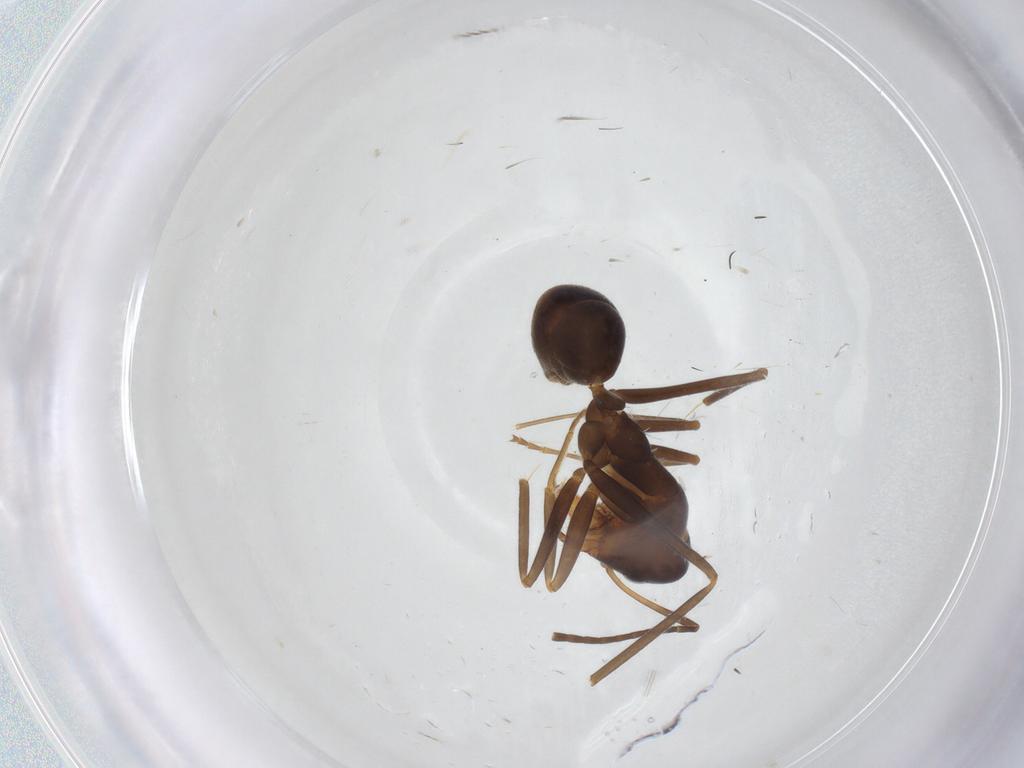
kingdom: Animalia
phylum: Arthropoda
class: Insecta
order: Hymenoptera
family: Formicidae
